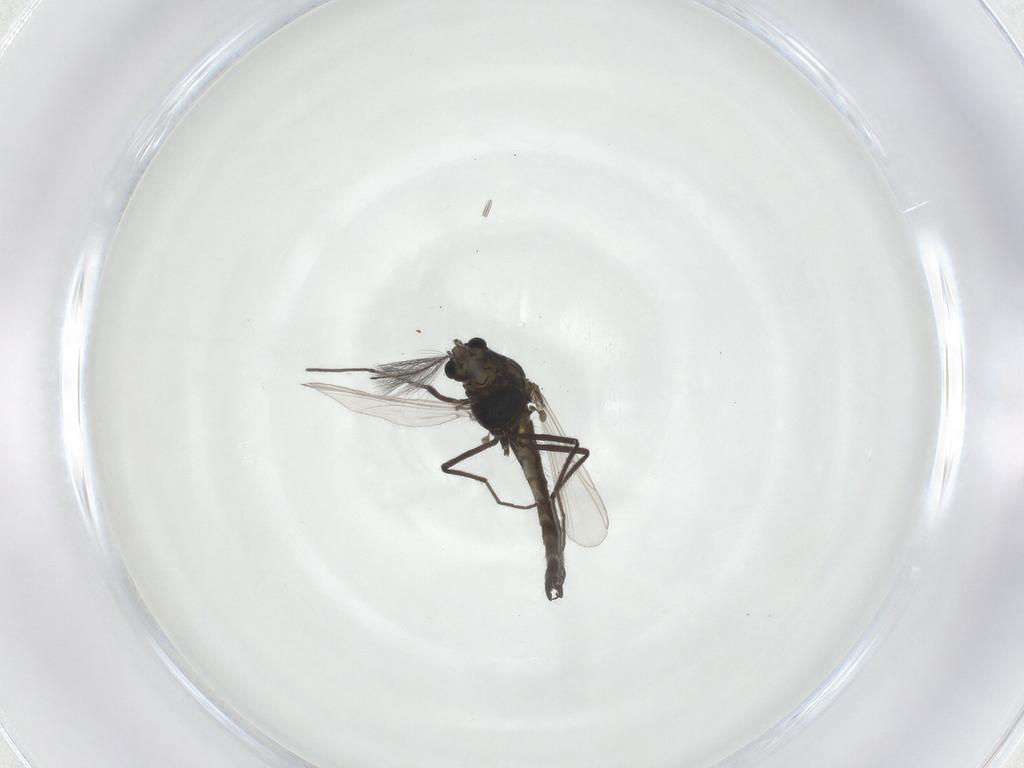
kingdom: Animalia
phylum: Arthropoda
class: Insecta
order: Diptera
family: Chironomidae
